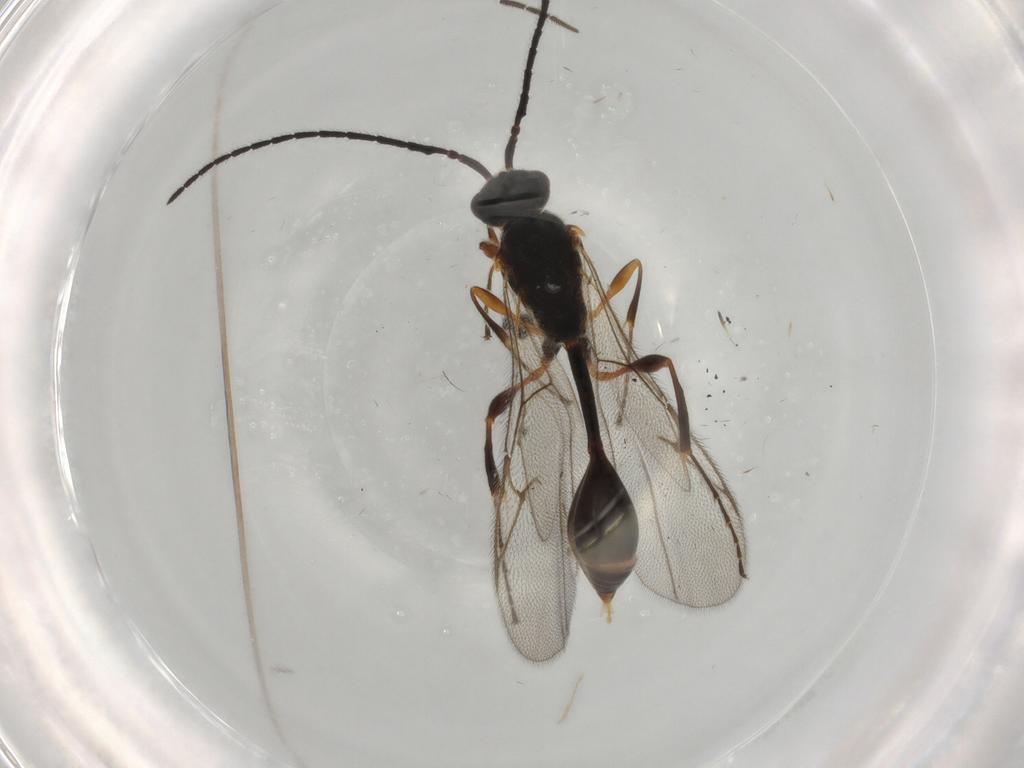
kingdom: Animalia
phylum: Arthropoda
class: Insecta
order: Hymenoptera
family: Diapriidae
